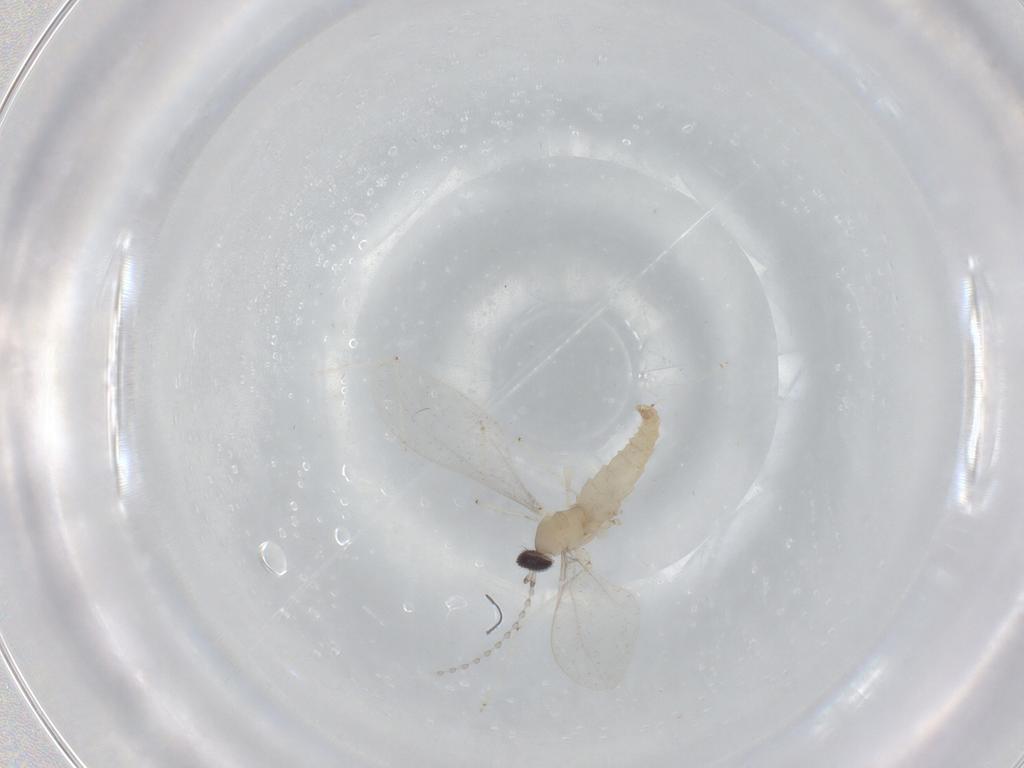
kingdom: Animalia
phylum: Arthropoda
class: Insecta
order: Diptera
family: Cecidomyiidae
